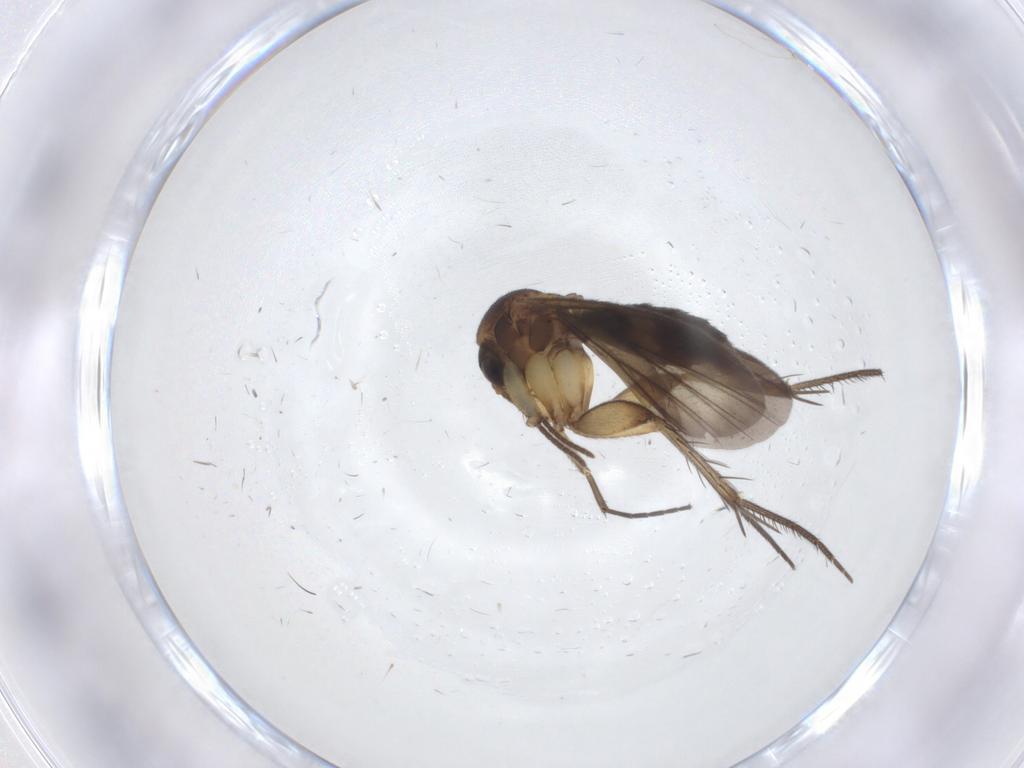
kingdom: Animalia
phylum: Arthropoda
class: Insecta
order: Diptera
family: Mycetophilidae
